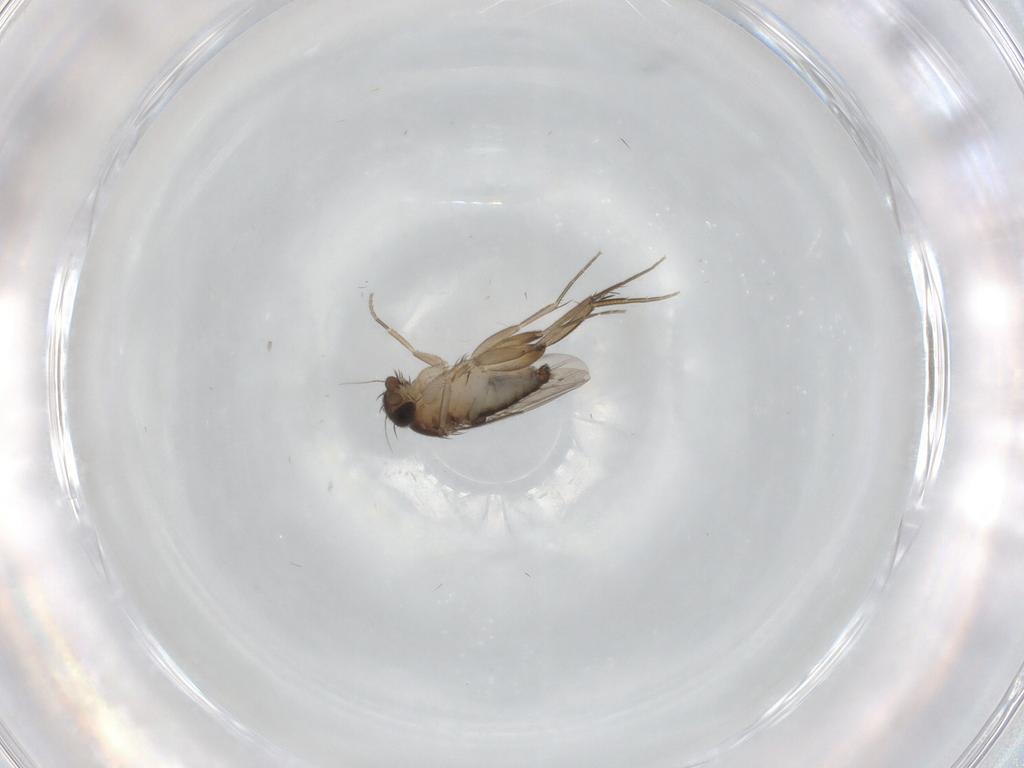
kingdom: Animalia
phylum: Arthropoda
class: Insecta
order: Diptera
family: Phoridae
